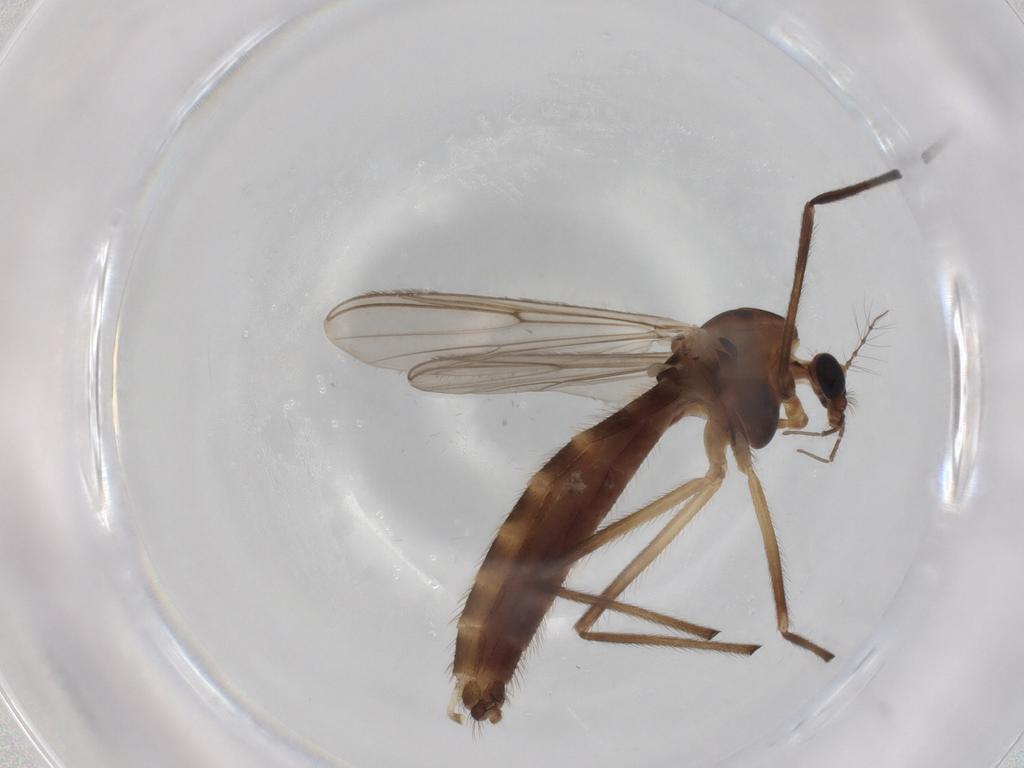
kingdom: Animalia
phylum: Arthropoda
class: Insecta
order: Diptera
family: Chironomidae
